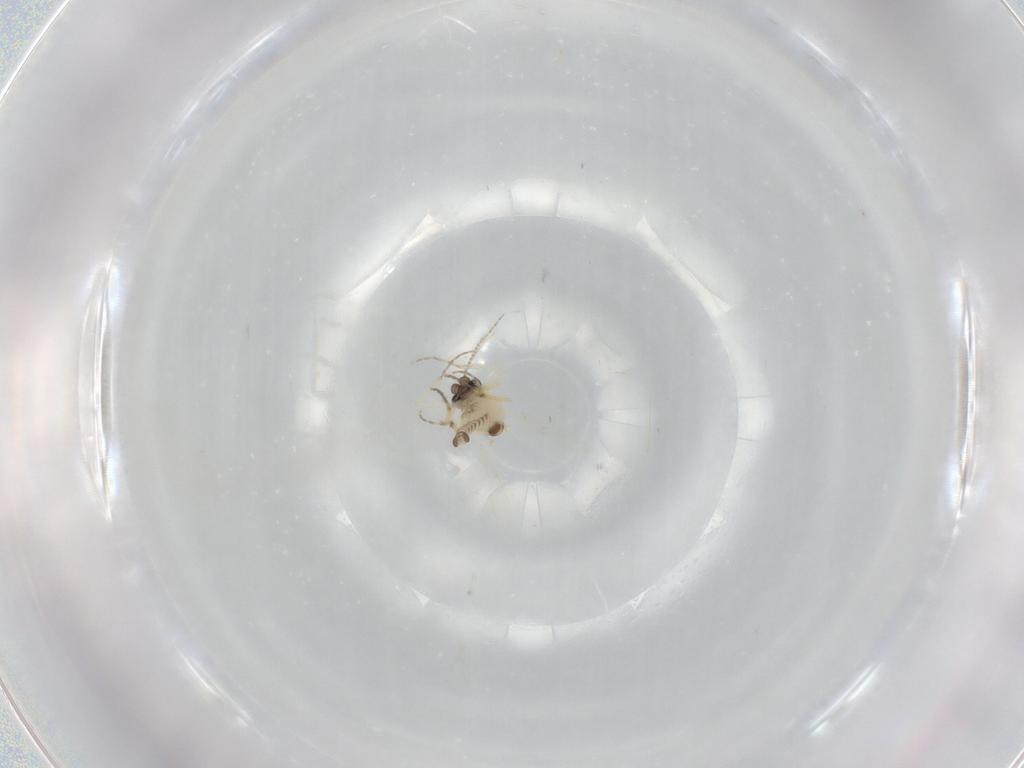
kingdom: Animalia
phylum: Arthropoda
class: Insecta
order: Diptera
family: Ceratopogonidae
